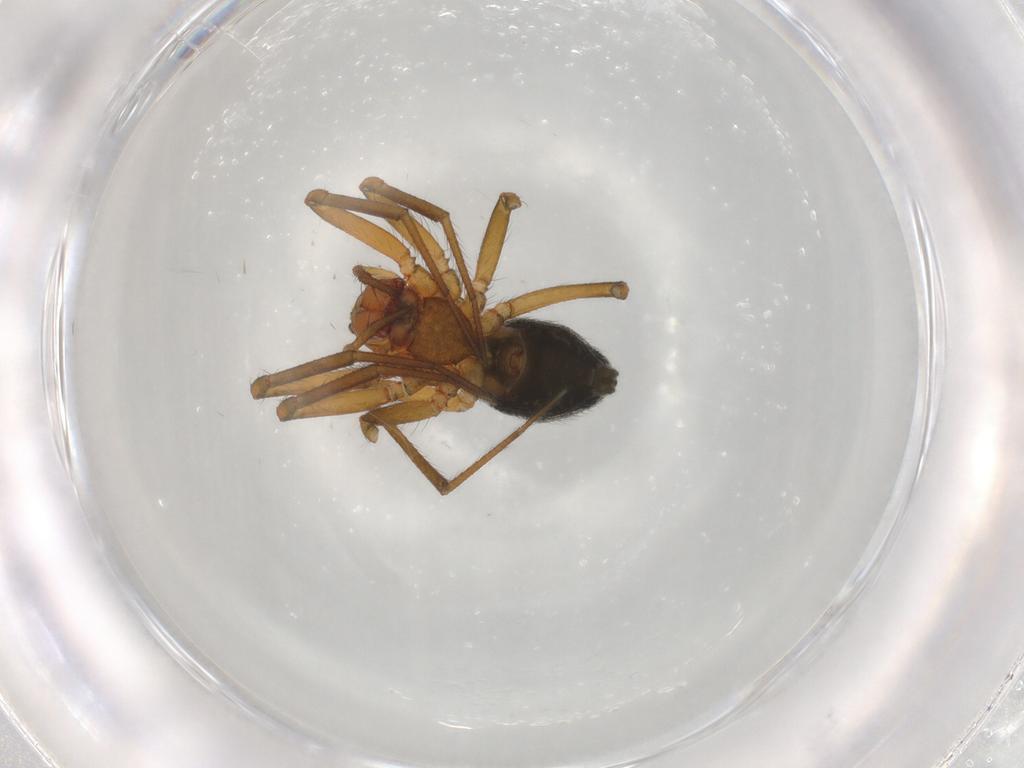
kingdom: Animalia
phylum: Arthropoda
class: Arachnida
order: Araneae
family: Linyphiidae
